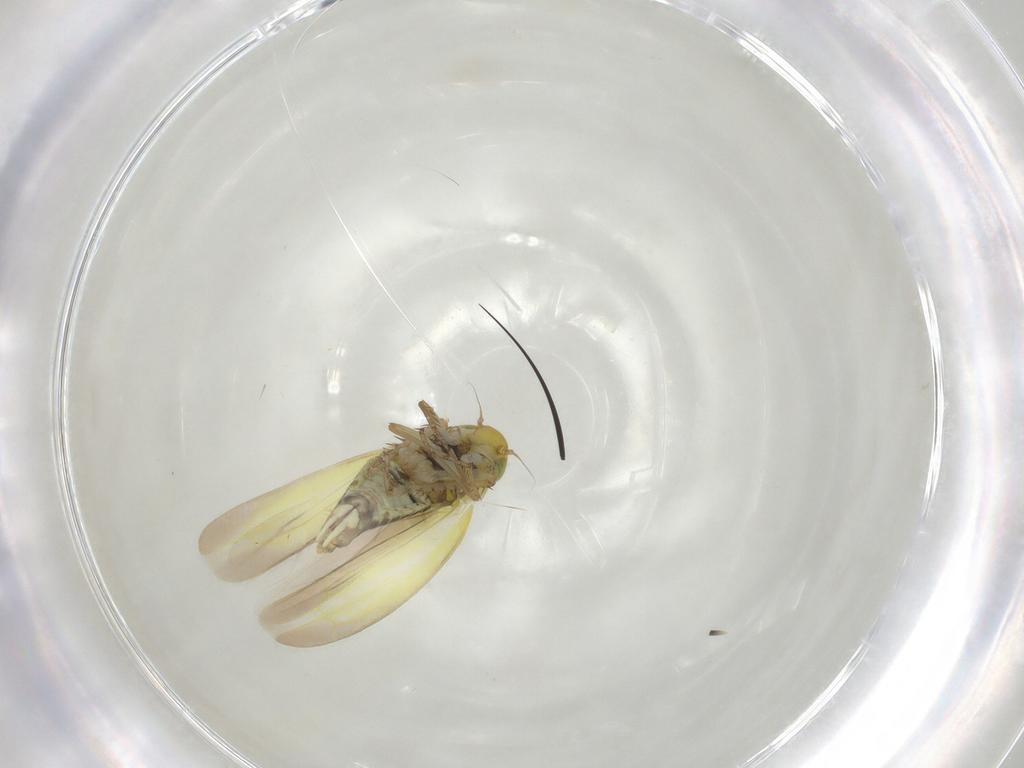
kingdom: Animalia
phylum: Arthropoda
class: Insecta
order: Hemiptera
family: Cicadellidae
